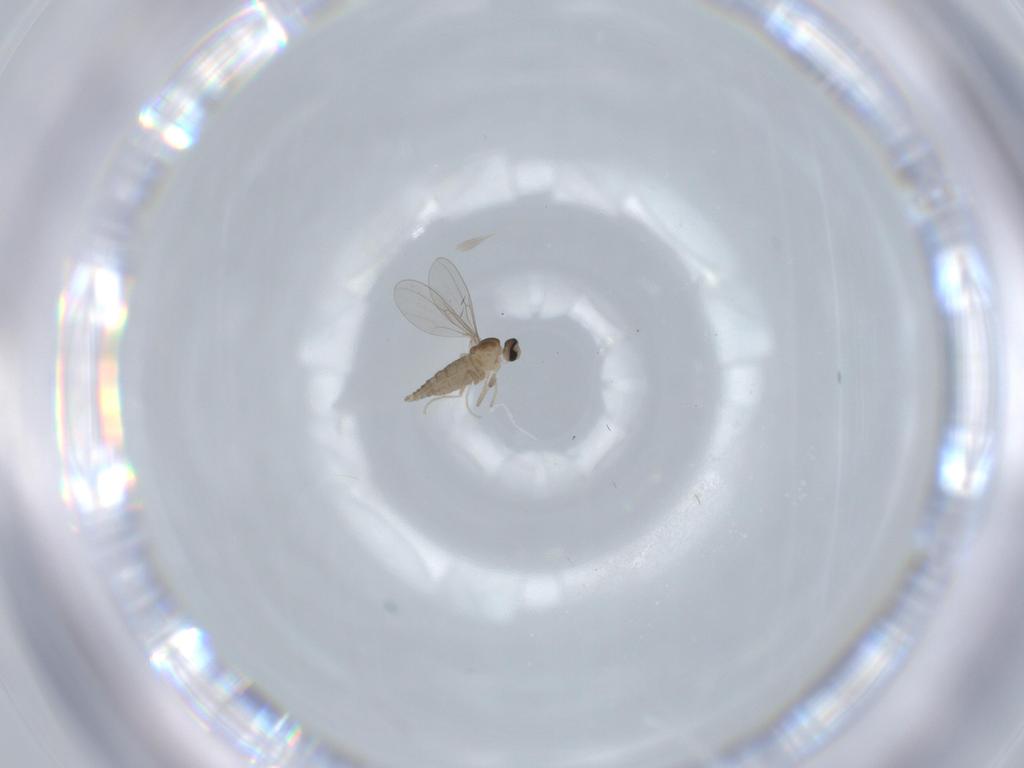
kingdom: Animalia
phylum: Arthropoda
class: Insecta
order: Diptera
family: Cecidomyiidae
